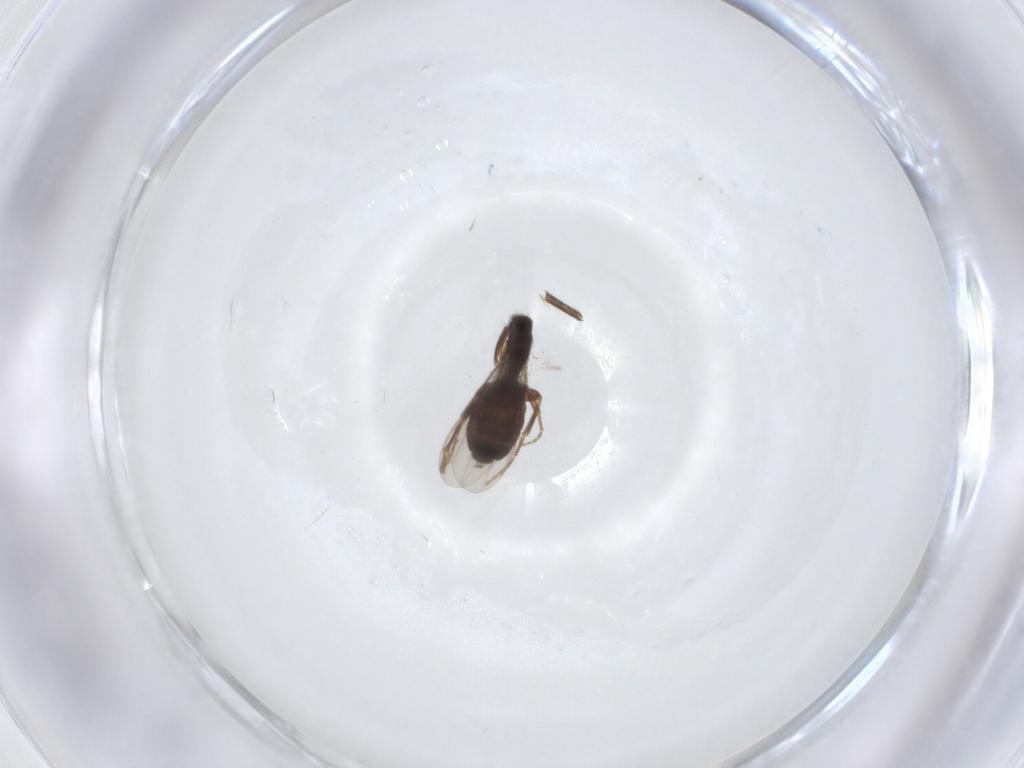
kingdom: Animalia
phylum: Arthropoda
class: Insecta
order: Diptera
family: Phoridae
